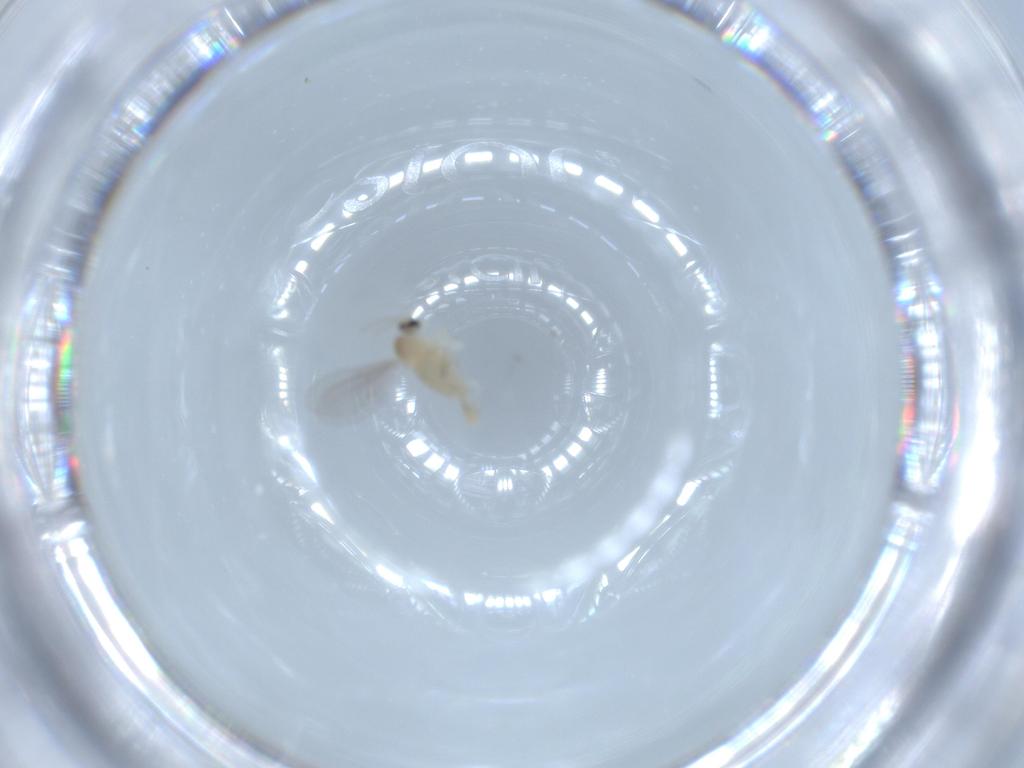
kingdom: Animalia
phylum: Arthropoda
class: Insecta
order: Diptera
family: Cecidomyiidae
